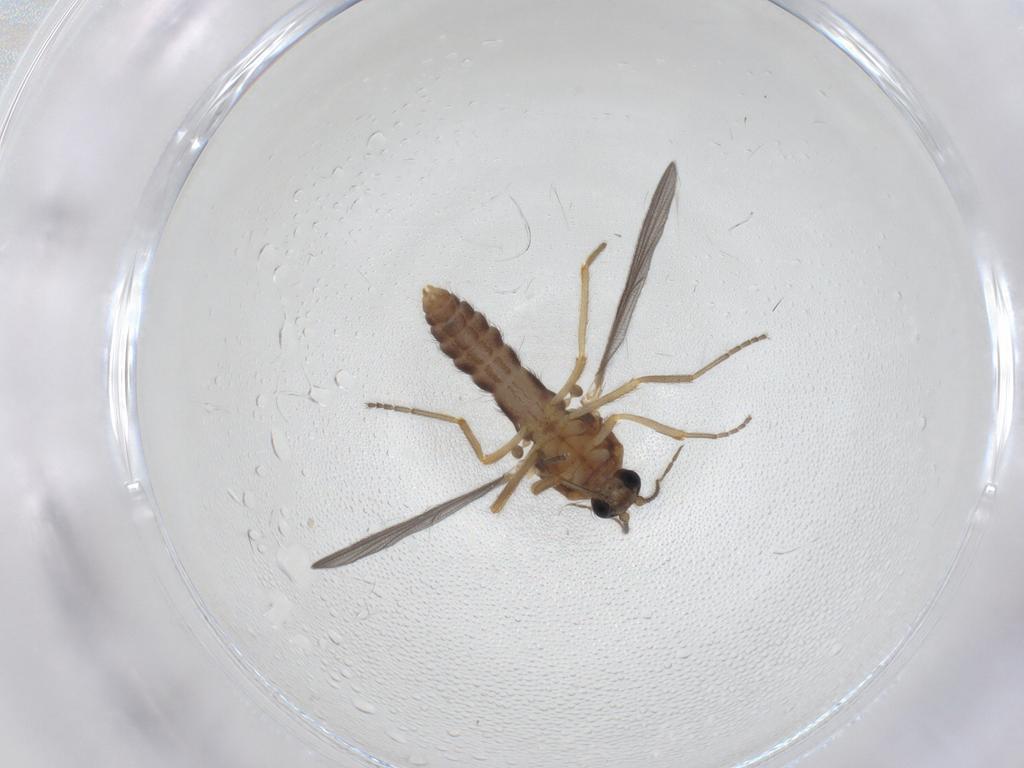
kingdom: Animalia
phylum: Arthropoda
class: Insecta
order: Diptera
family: Ceratopogonidae
